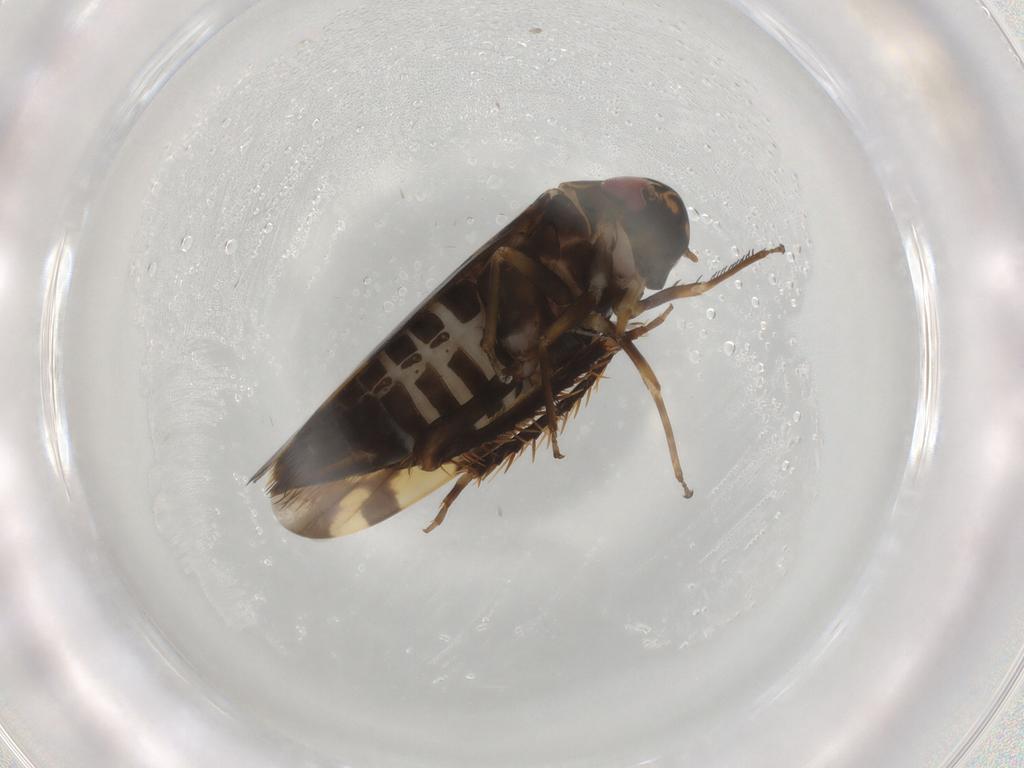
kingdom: Animalia
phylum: Arthropoda
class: Insecta
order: Hemiptera
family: Cicadellidae
